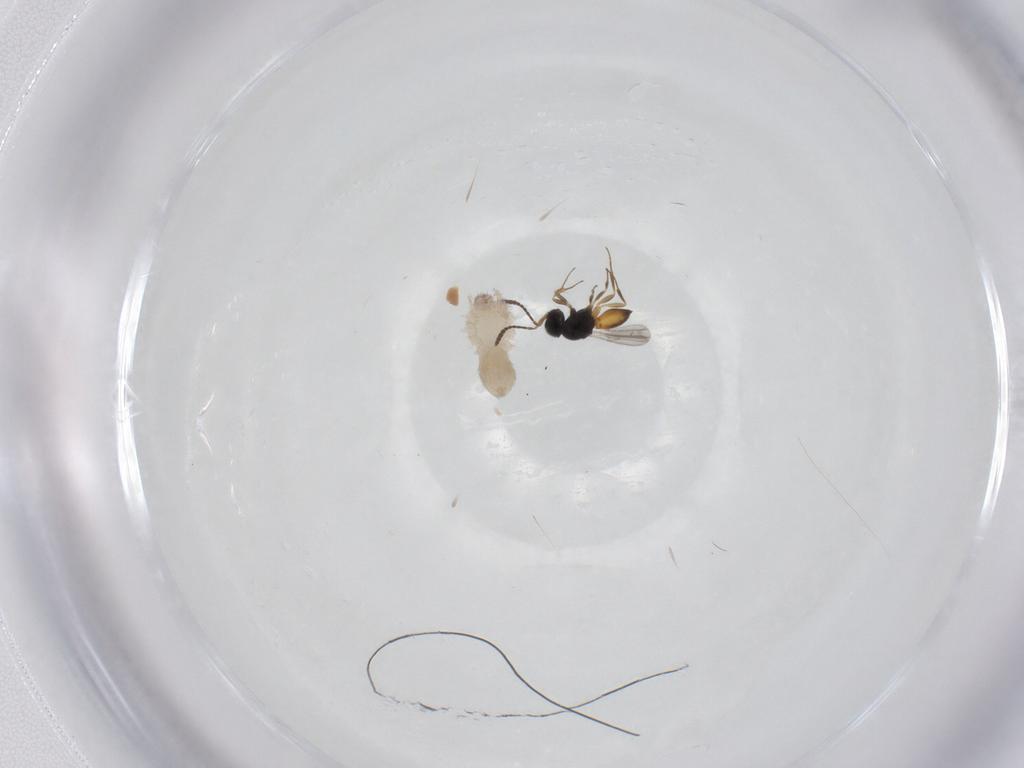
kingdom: Animalia
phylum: Arthropoda
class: Insecta
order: Hymenoptera
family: Scelionidae
